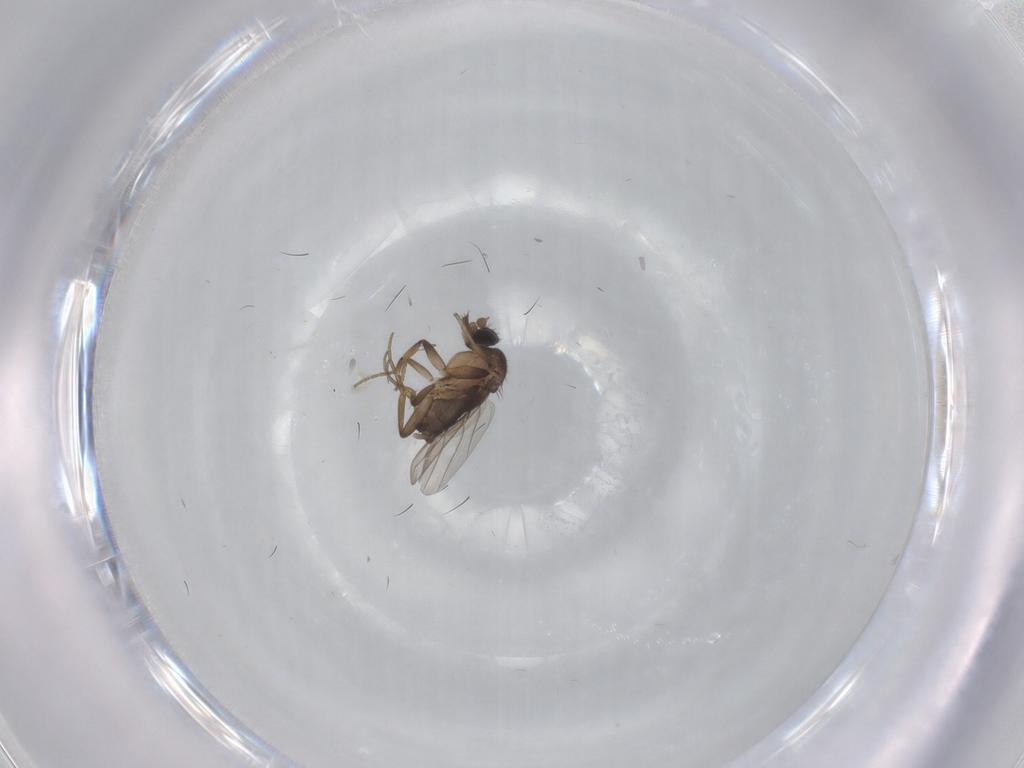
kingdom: Animalia
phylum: Arthropoda
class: Insecta
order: Diptera
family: Phoridae
